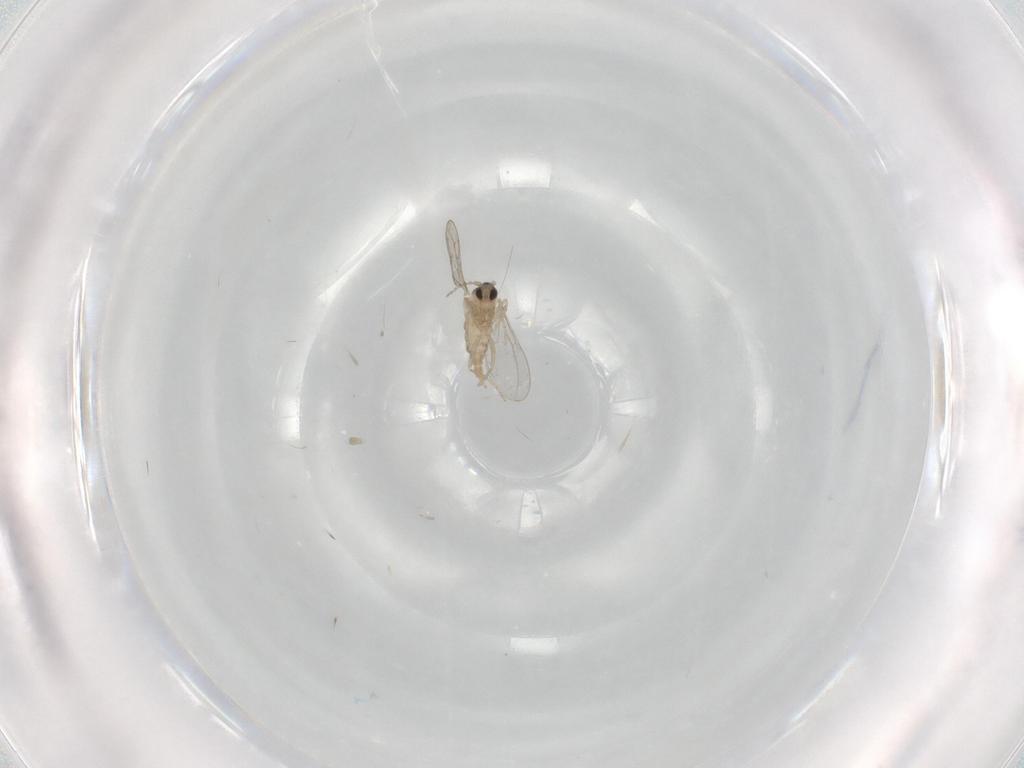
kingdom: Animalia
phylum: Arthropoda
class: Insecta
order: Diptera
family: Cecidomyiidae
